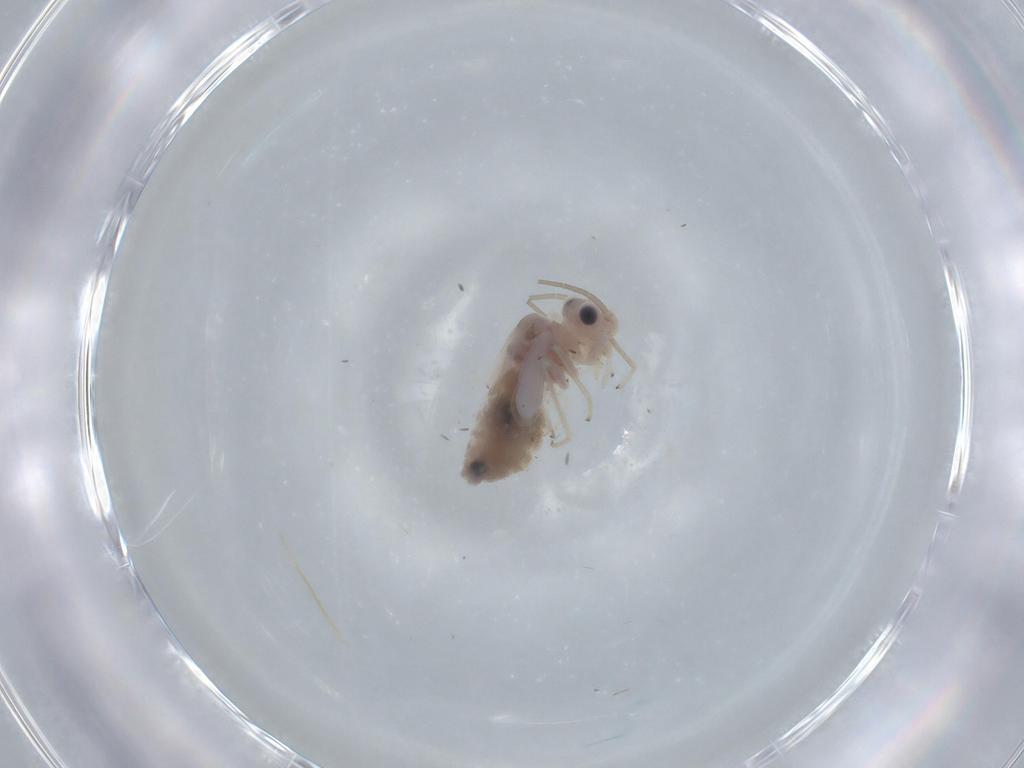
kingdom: Animalia
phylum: Arthropoda
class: Insecta
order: Psocodea
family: Caeciliusidae
